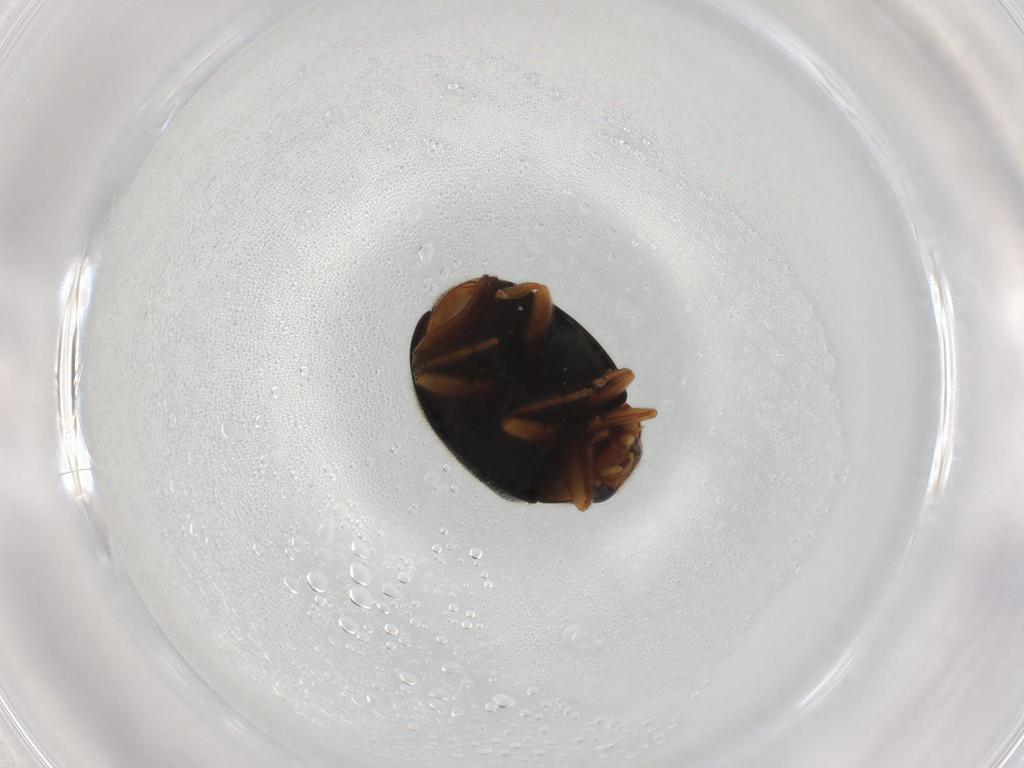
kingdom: Animalia
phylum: Arthropoda
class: Insecta
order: Coleoptera
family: Coccinellidae
